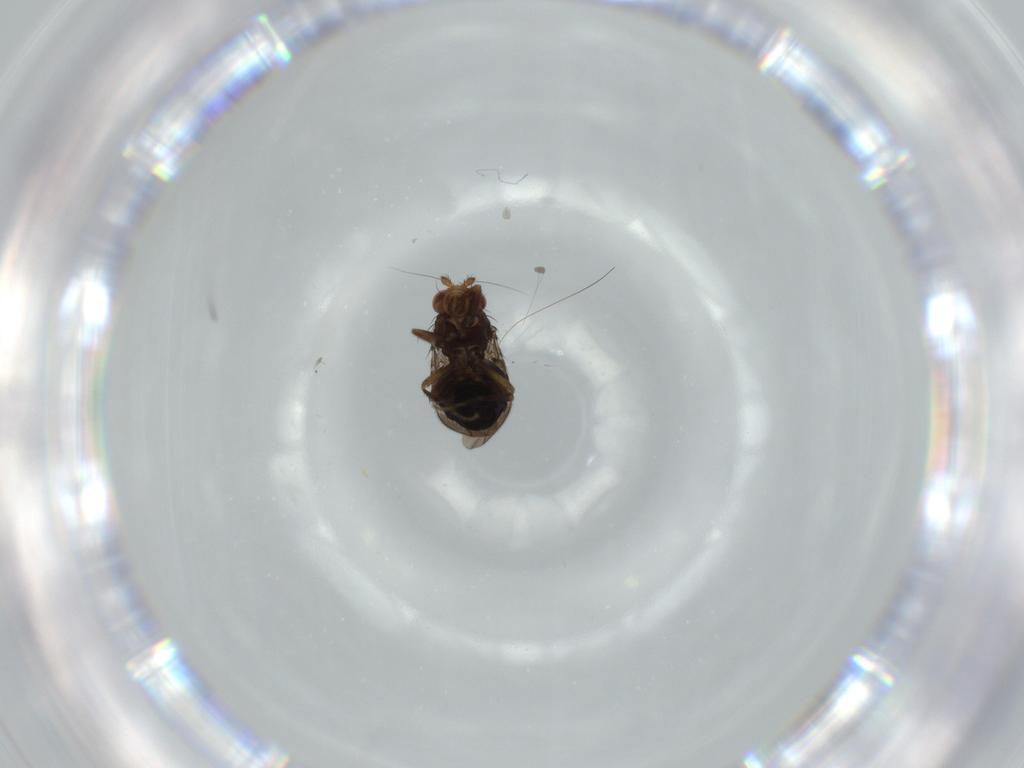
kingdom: Animalia
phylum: Arthropoda
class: Insecta
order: Diptera
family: Sphaeroceridae
